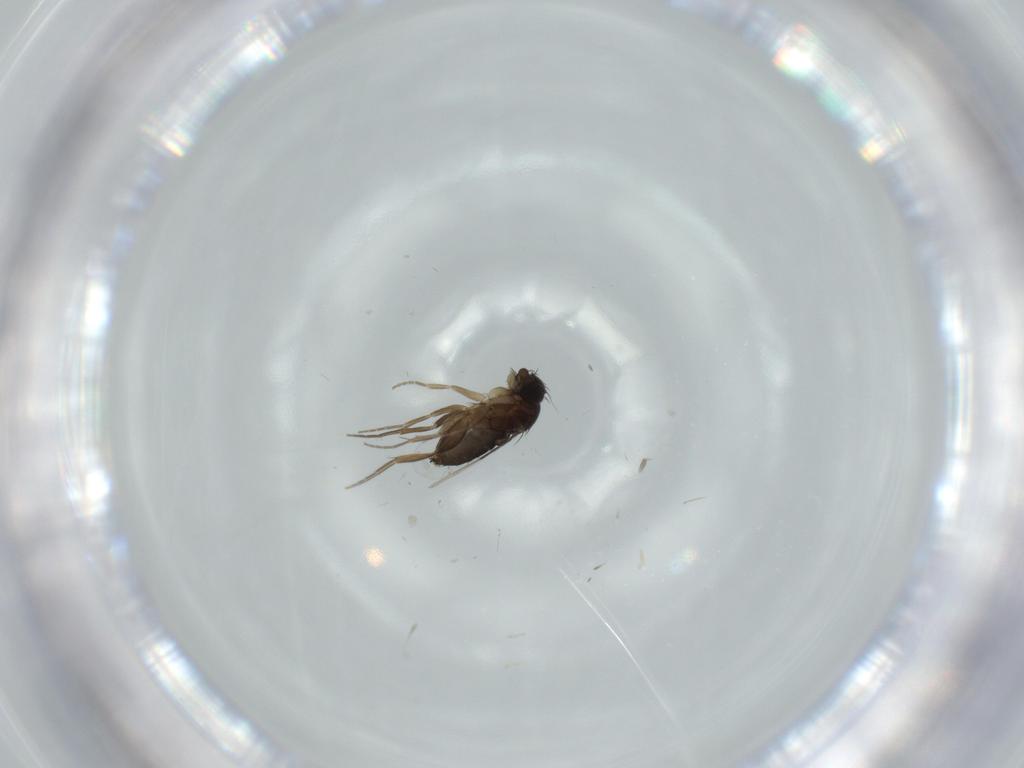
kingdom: Animalia
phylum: Arthropoda
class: Insecta
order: Diptera
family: Phoridae
